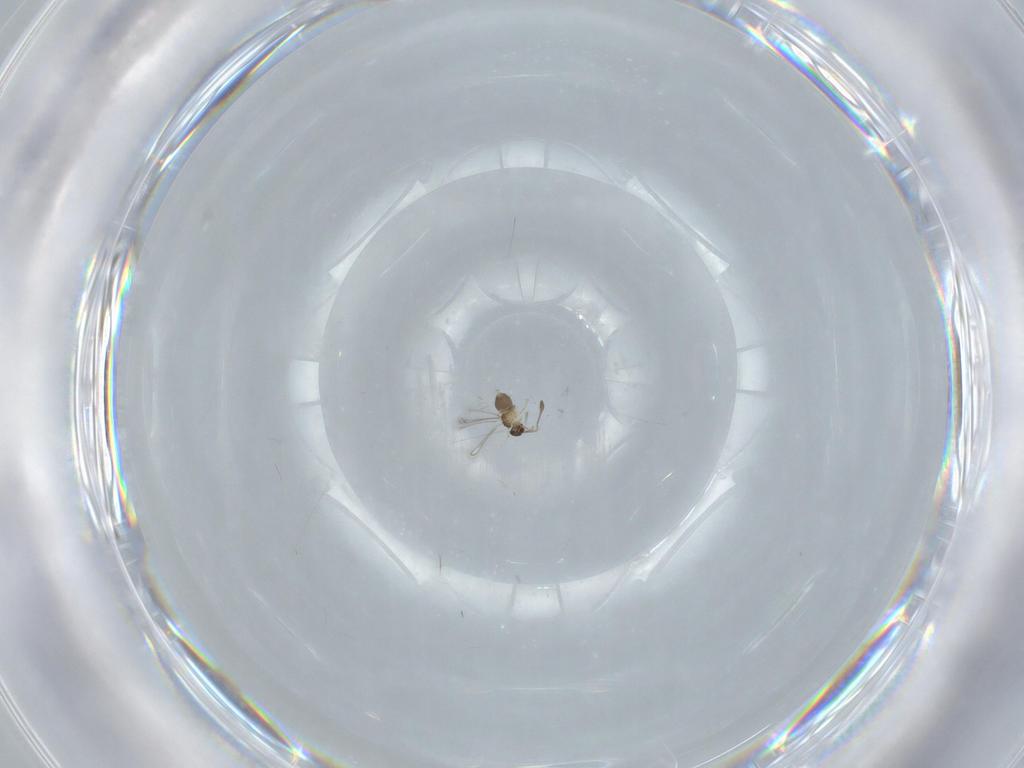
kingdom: Animalia
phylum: Arthropoda
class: Insecta
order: Hymenoptera
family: Mymaridae
